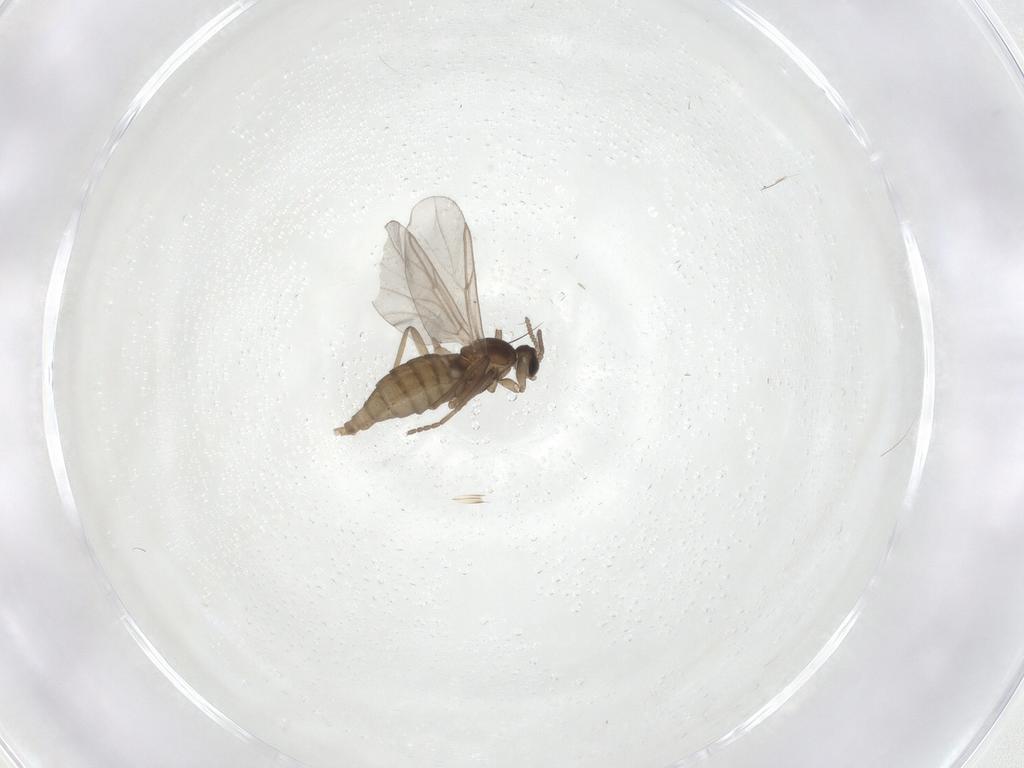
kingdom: Animalia
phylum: Arthropoda
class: Insecta
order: Diptera
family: Cecidomyiidae
